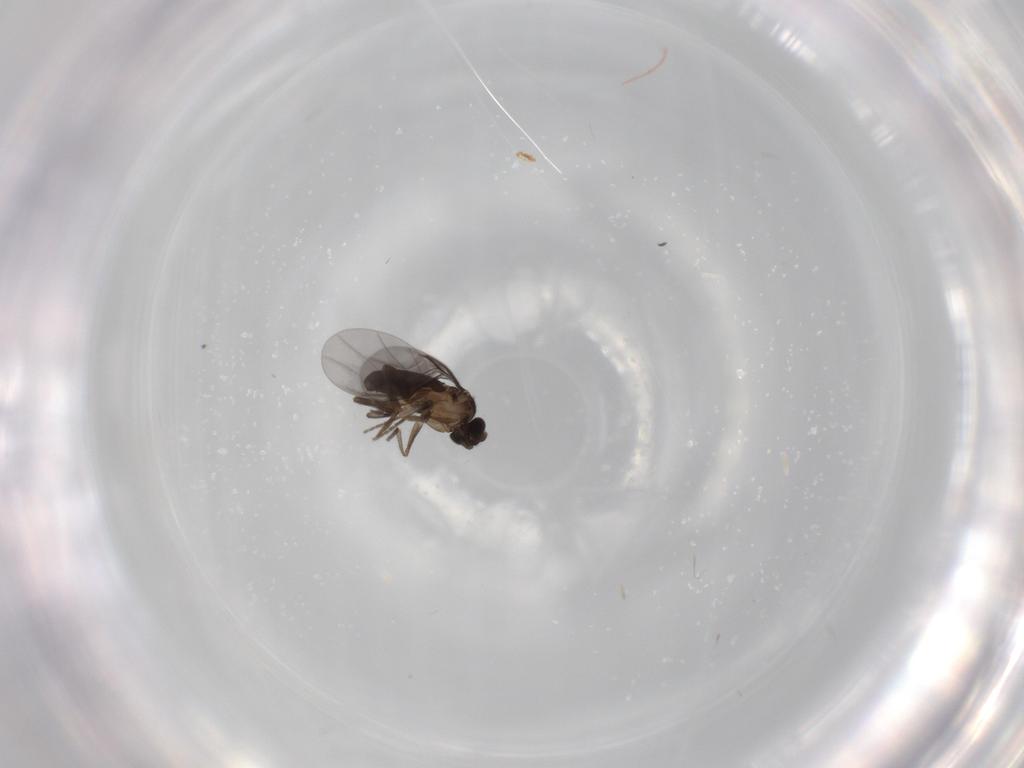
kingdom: Animalia
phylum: Arthropoda
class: Insecta
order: Diptera
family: Phoridae
